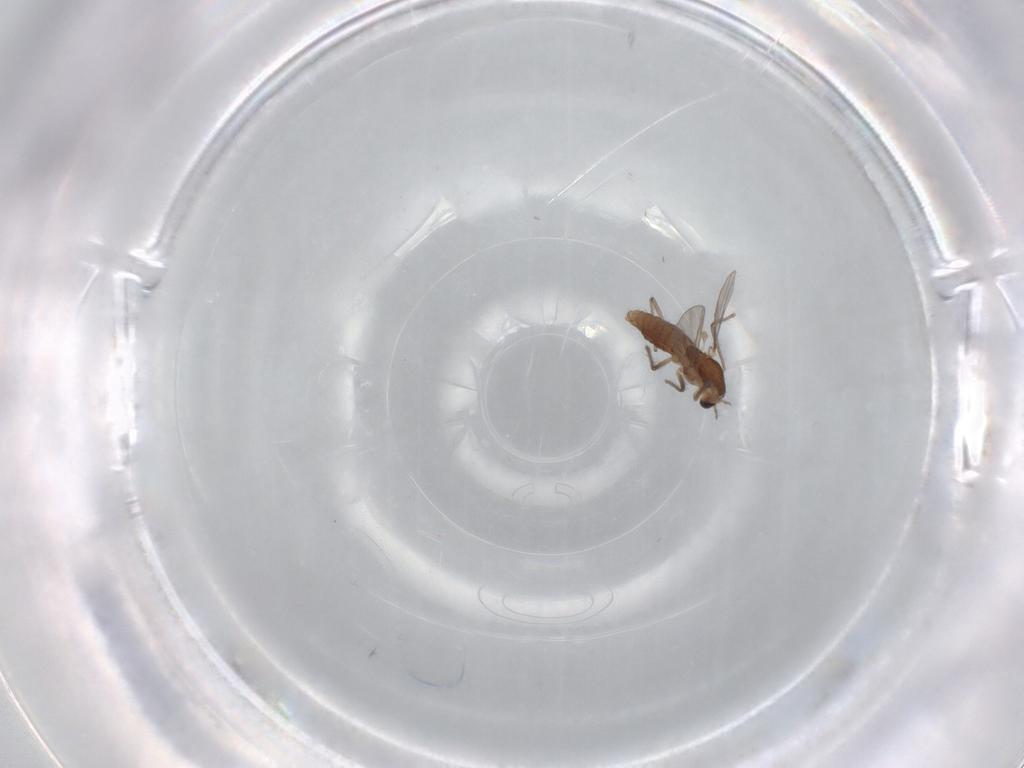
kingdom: Animalia
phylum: Arthropoda
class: Insecta
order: Diptera
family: Chironomidae
